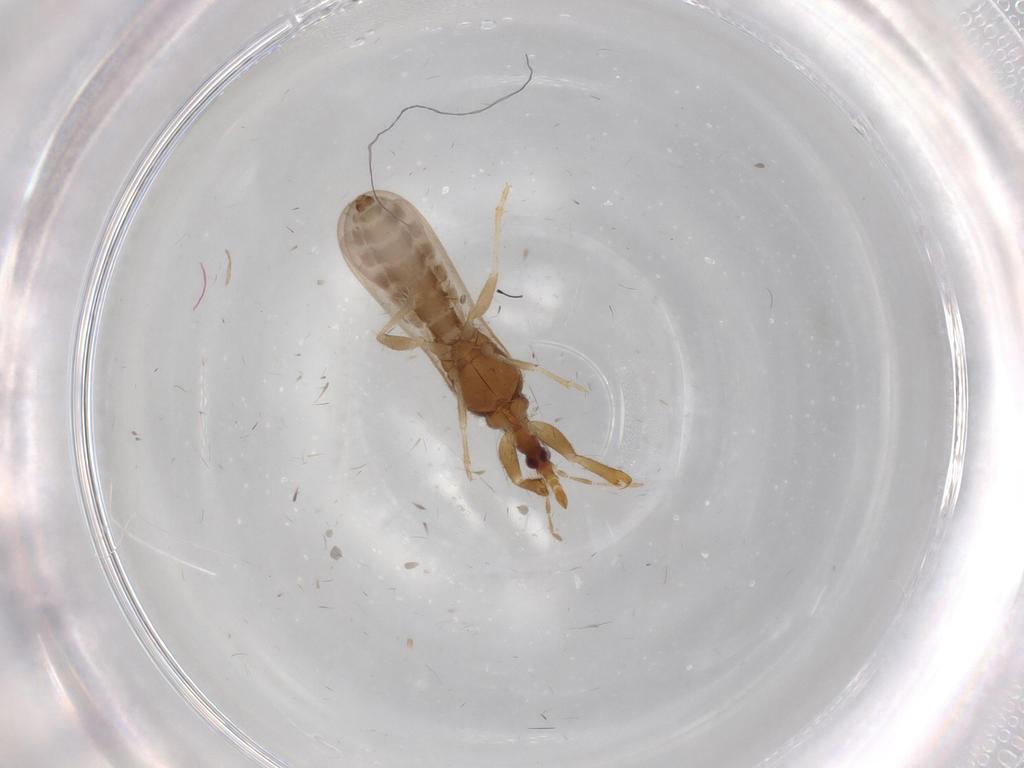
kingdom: Animalia
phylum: Arthropoda
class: Insecta
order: Hemiptera
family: Enicocephalidae
